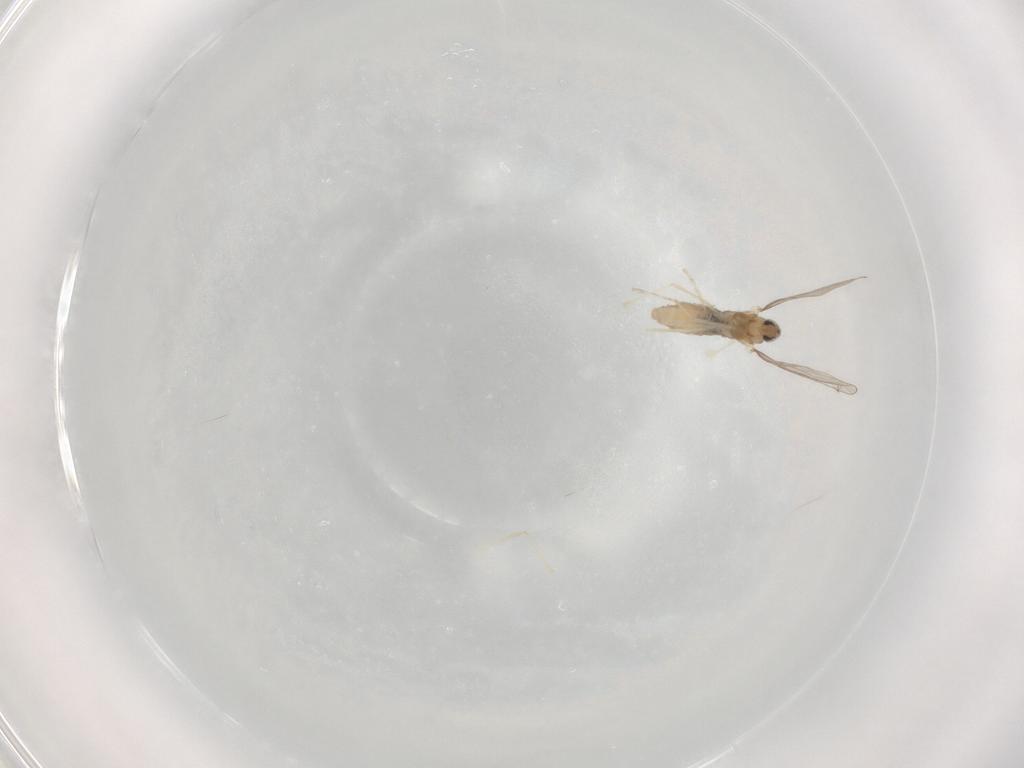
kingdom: Animalia
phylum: Arthropoda
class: Insecta
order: Diptera
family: Cecidomyiidae
